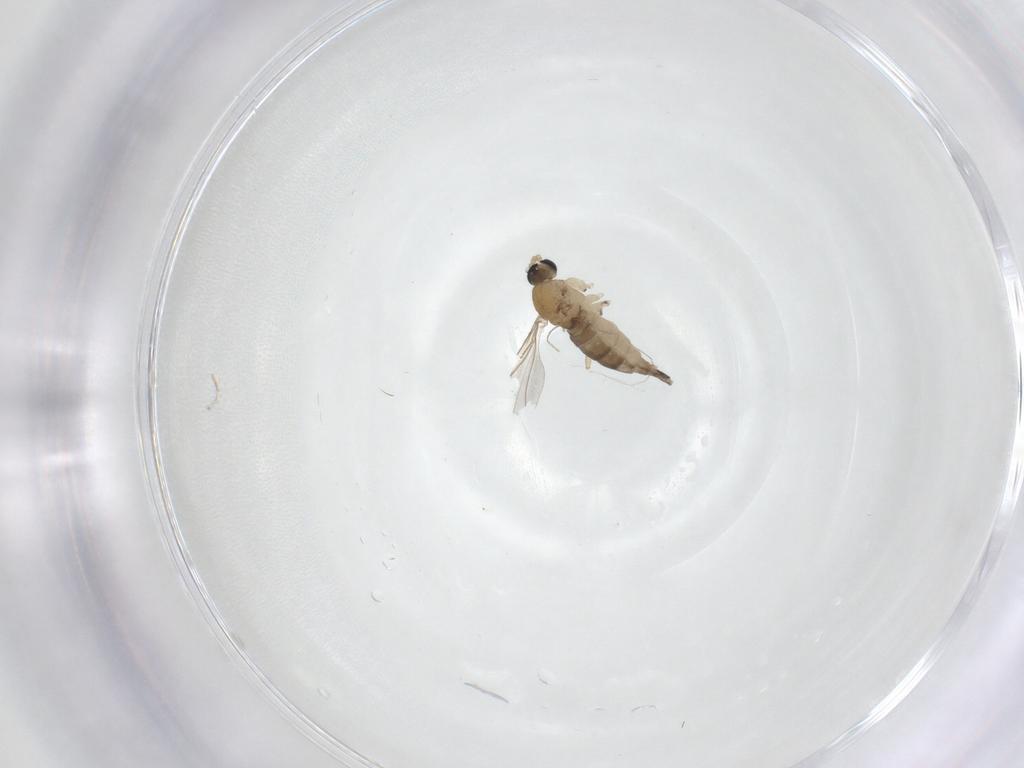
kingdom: Animalia
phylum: Arthropoda
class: Insecta
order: Diptera
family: Sciaridae
